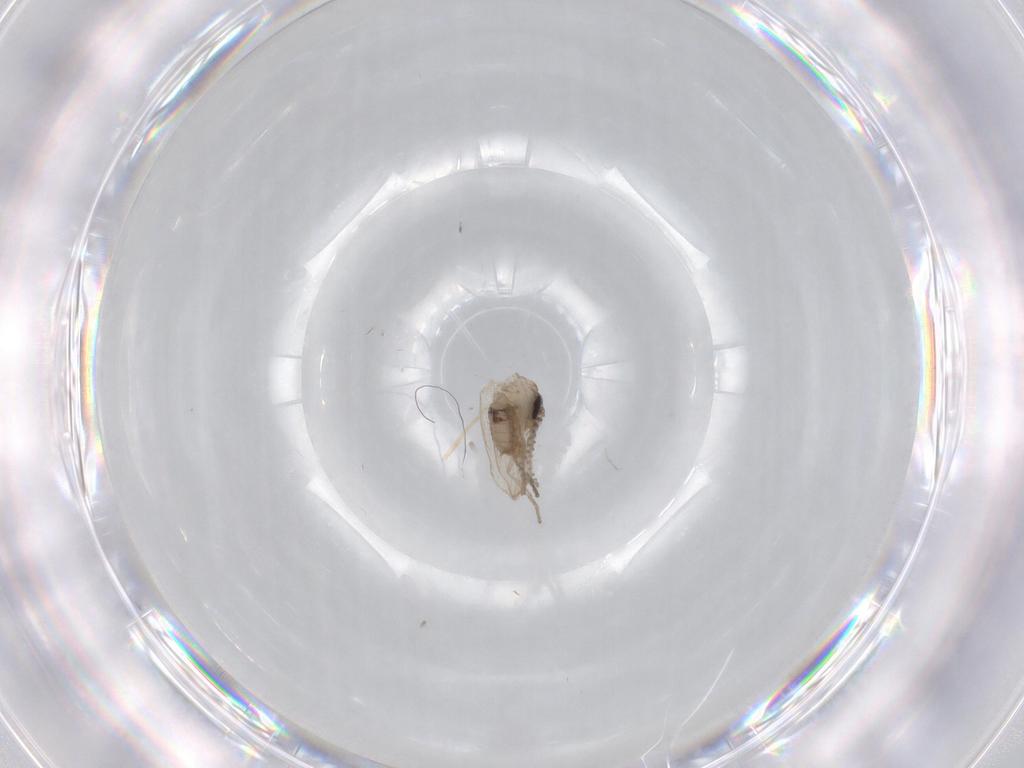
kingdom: Animalia
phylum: Arthropoda
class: Insecta
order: Diptera
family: Psychodidae
